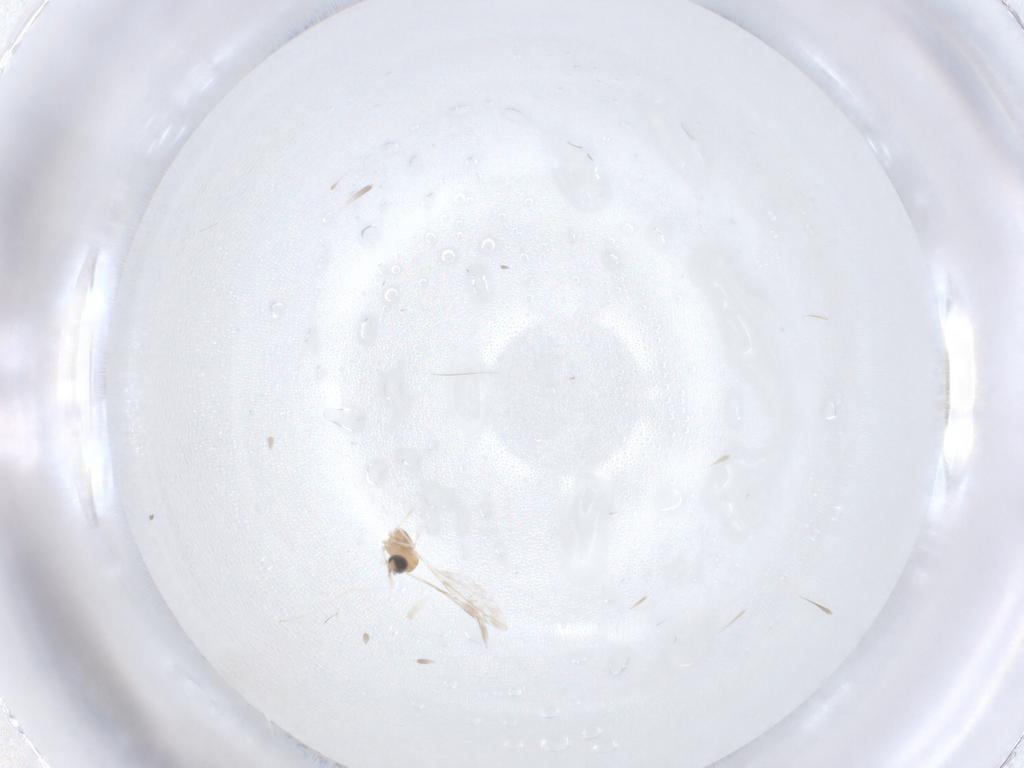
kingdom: Animalia
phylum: Arthropoda
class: Insecta
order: Diptera
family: Cecidomyiidae
